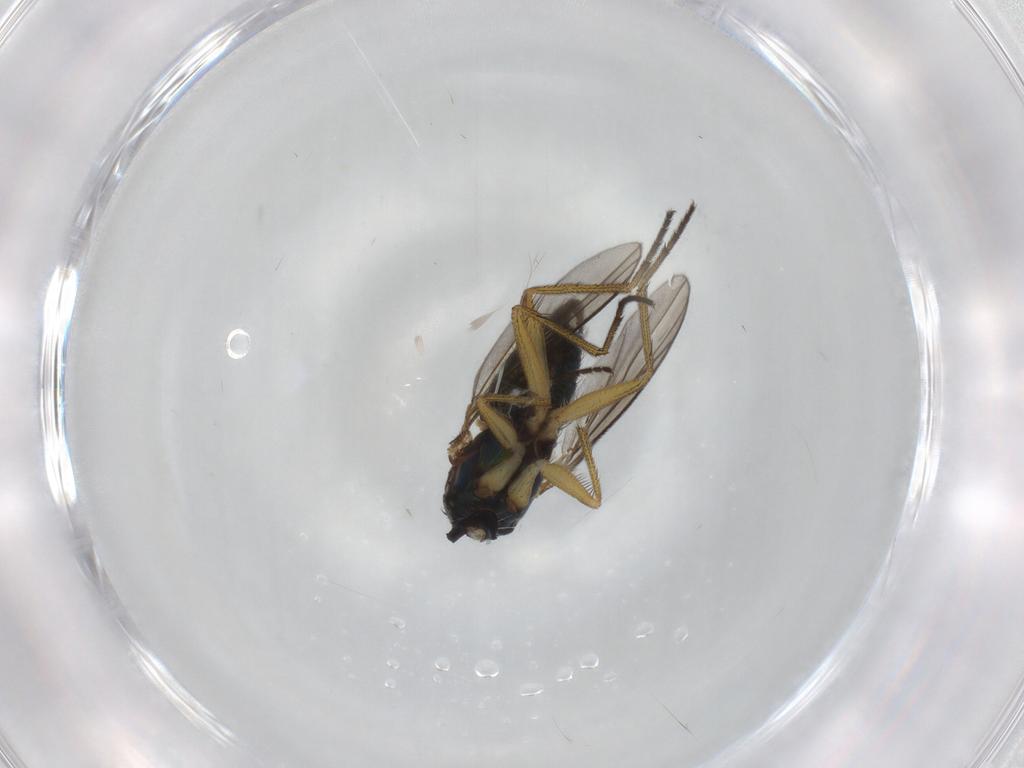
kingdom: Animalia
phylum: Arthropoda
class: Insecta
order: Diptera
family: Dolichopodidae
